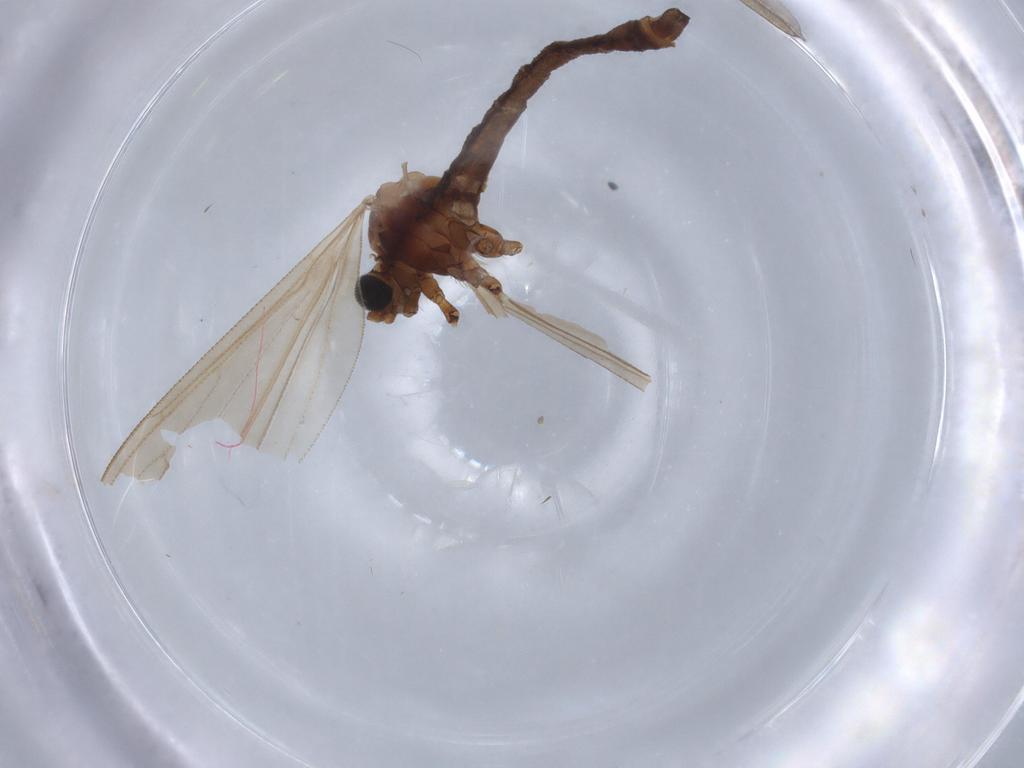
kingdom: Animalia
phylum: Arthropoda
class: Insecta
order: Diptera
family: Limoniidae
